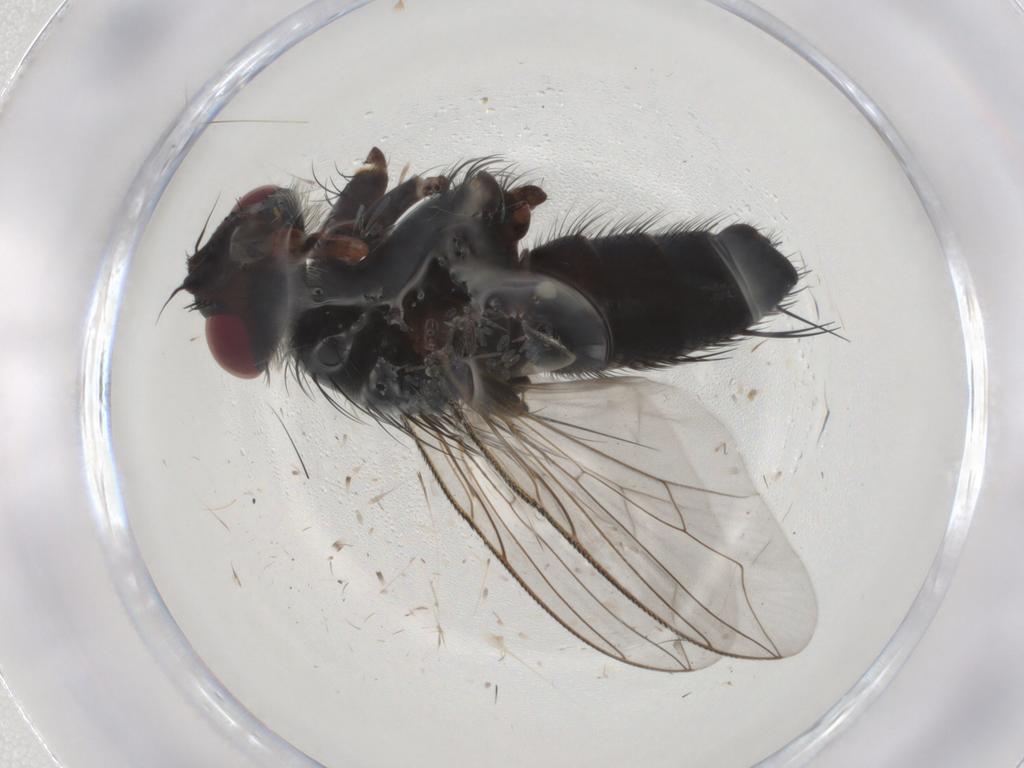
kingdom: Animalia
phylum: Arthropoda
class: Insecta
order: Diptera
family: Tachinidae
